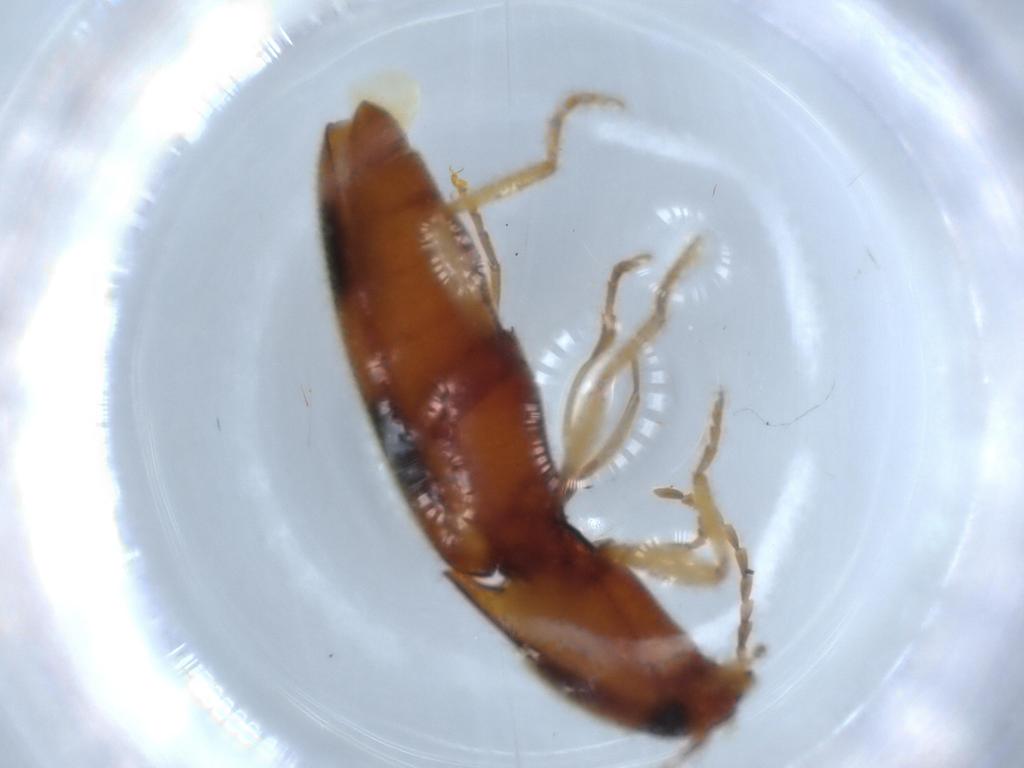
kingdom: Animalia
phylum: Arthropoda
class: Insecta
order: Coleoptera
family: Elateridae
